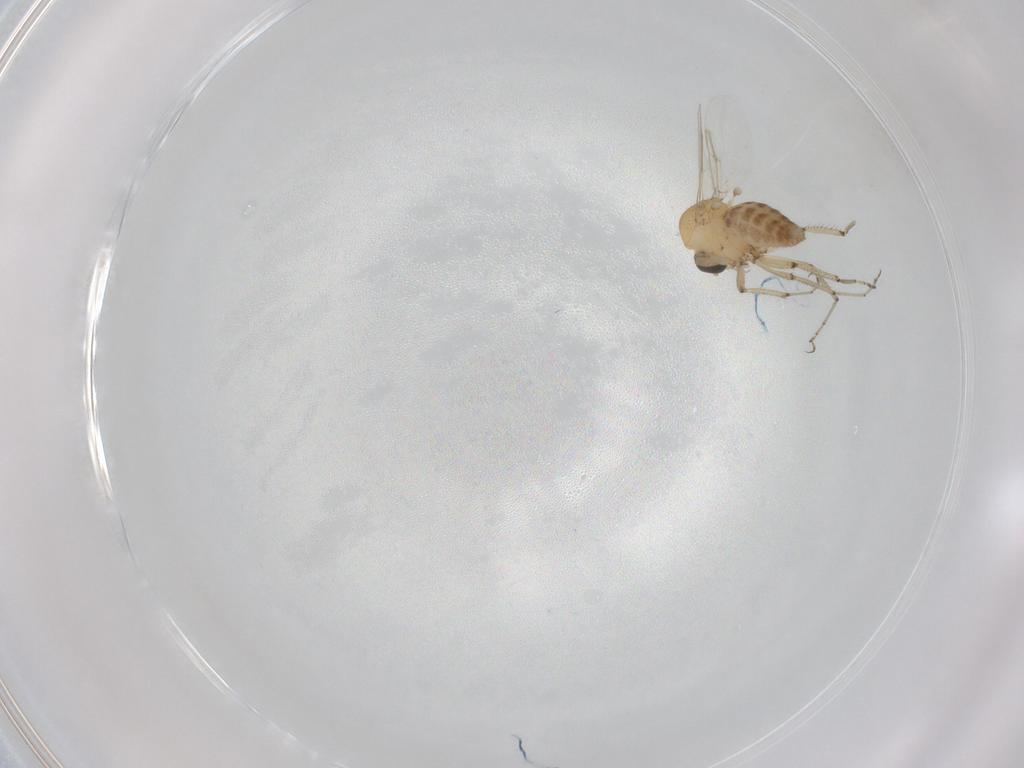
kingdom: Animalia
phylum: Arthropoda
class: Insecta
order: Diptera
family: Ceratopogonidae
